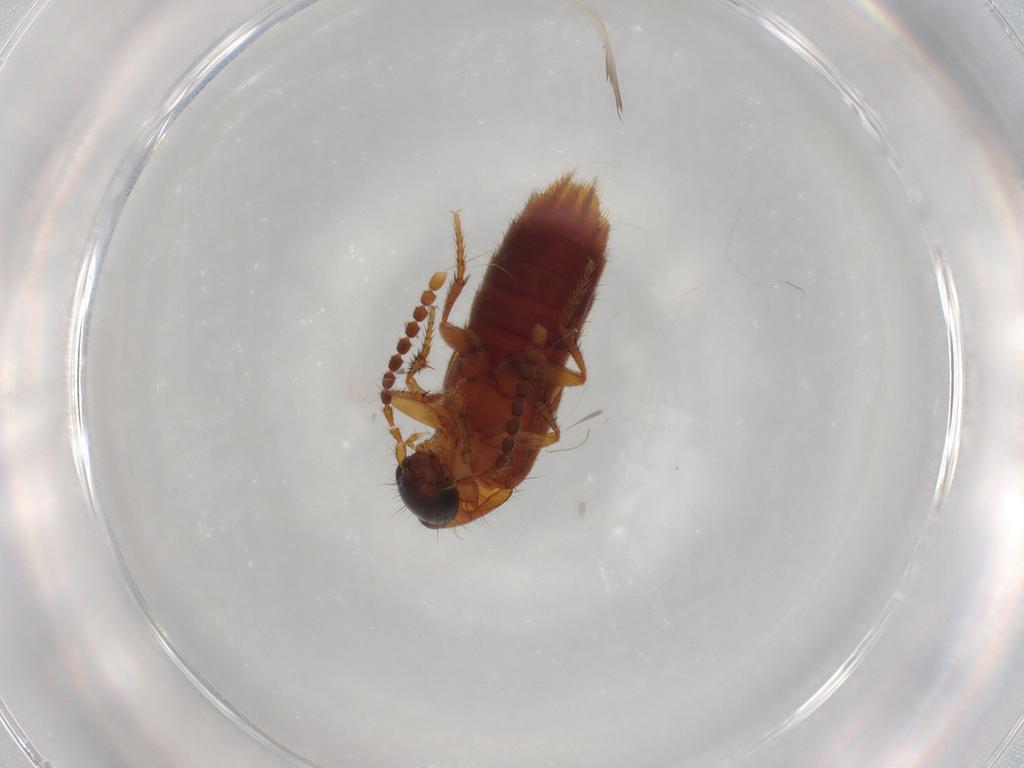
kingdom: Animalia
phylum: Arthropoda
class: Insecta
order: Coleoptera
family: Staphylinidae
